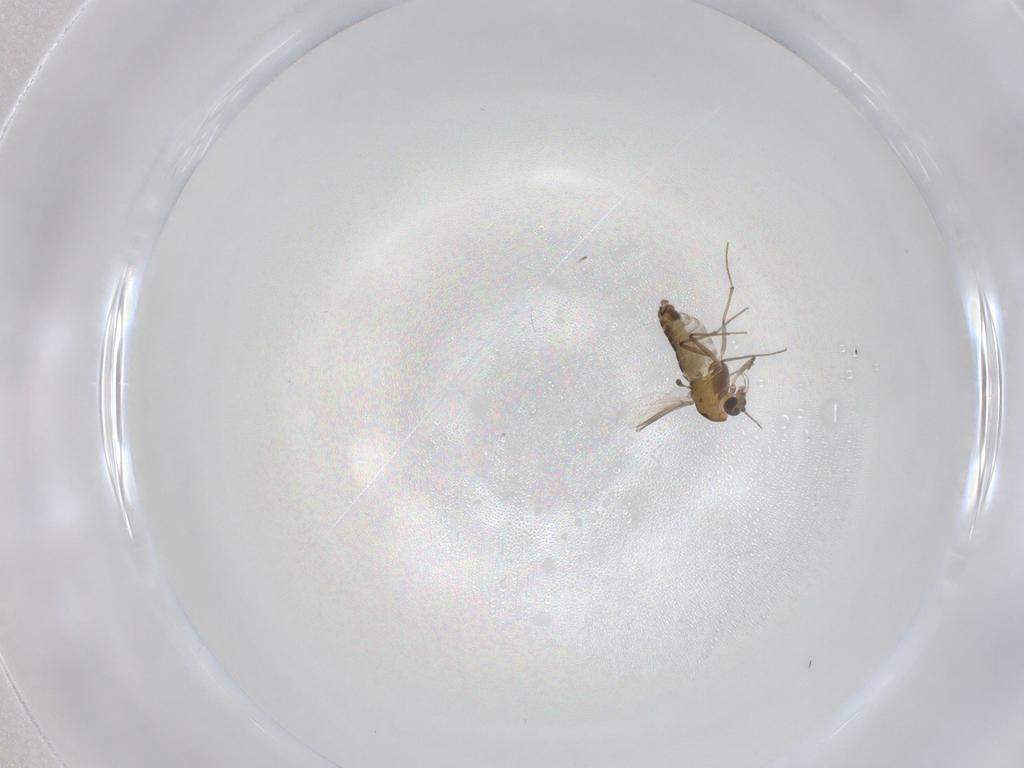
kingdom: Animalia
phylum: Arthropoda
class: Insecta
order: Diptera
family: Chironomidae
